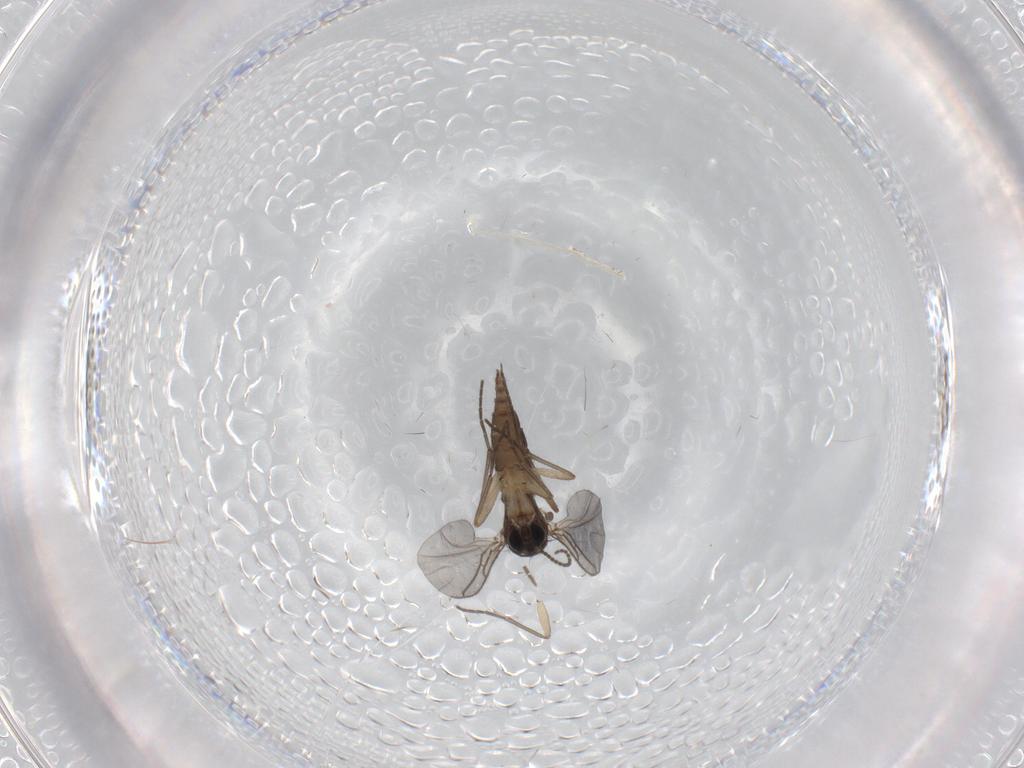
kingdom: Animalia
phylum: Arthropoda
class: Insecta
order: Diptera
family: Sciaridae
